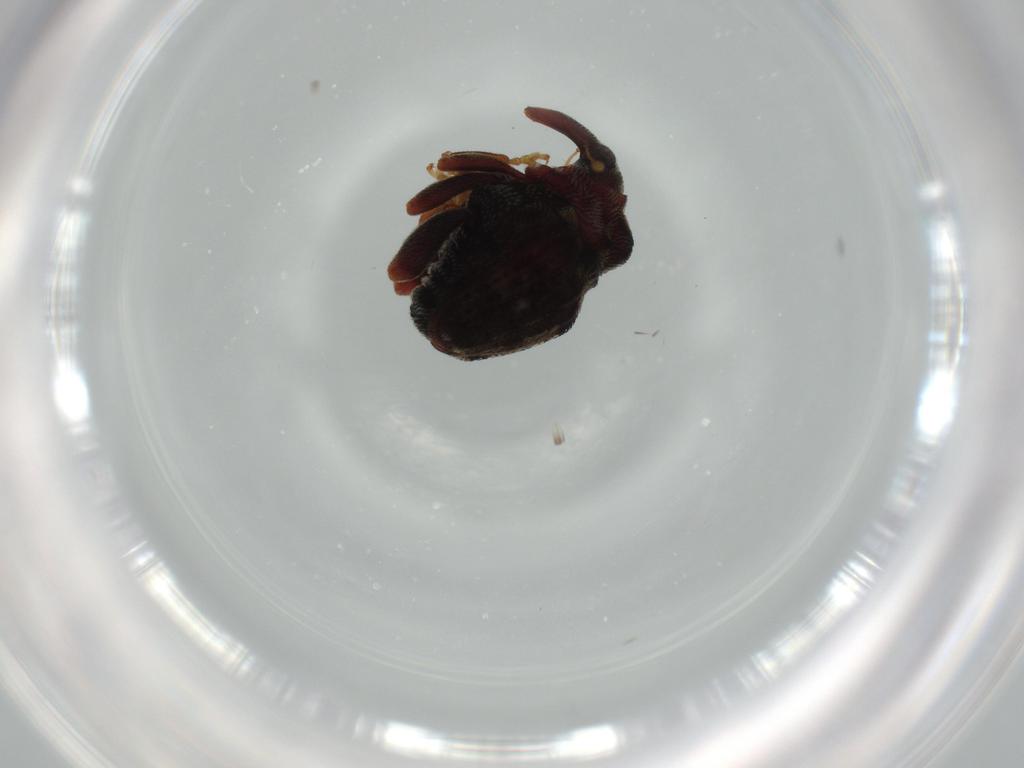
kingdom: Animalia
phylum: Arthropoda
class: Insecta
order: Coleoptera
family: Curculionidae
